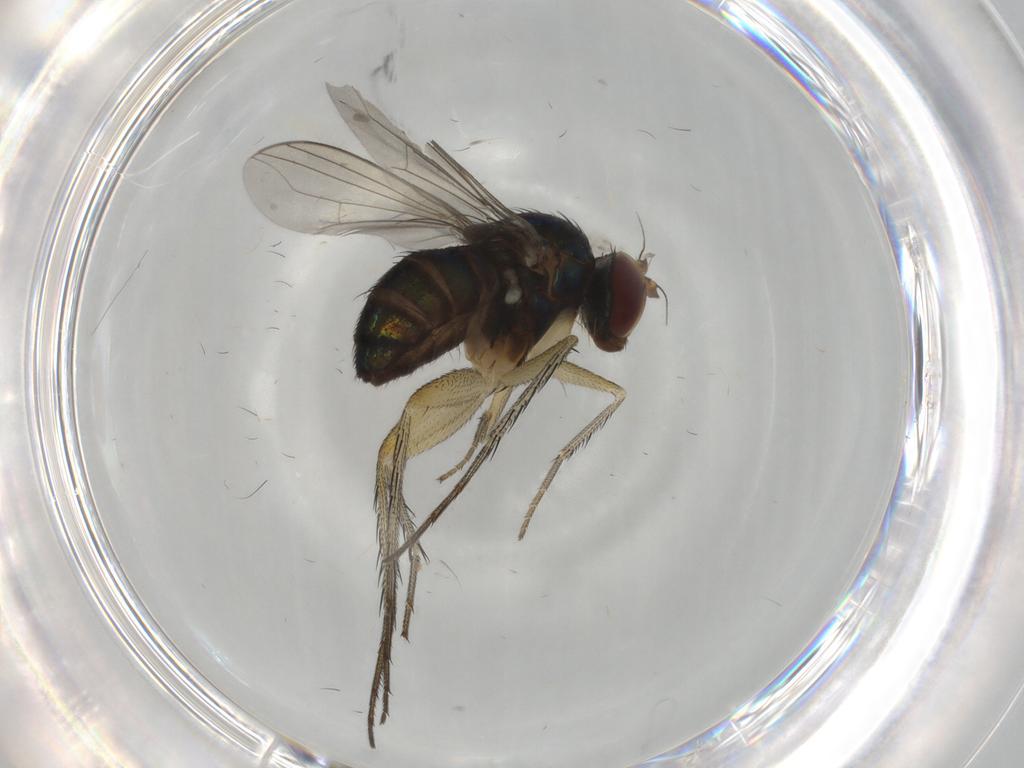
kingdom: Animalia
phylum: Arthropoda
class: Insecta
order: Diptera
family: Dolichopodidae
